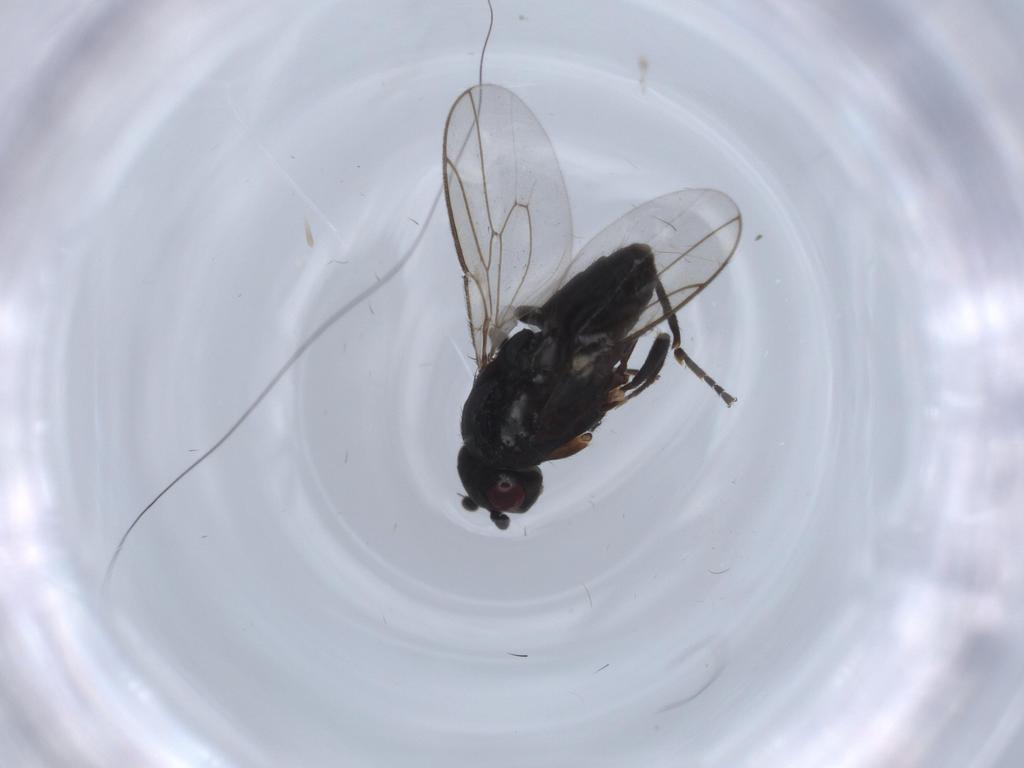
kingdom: Animalia
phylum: Arthropoda
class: Insecta
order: Diptera
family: Sphaeroceridae
